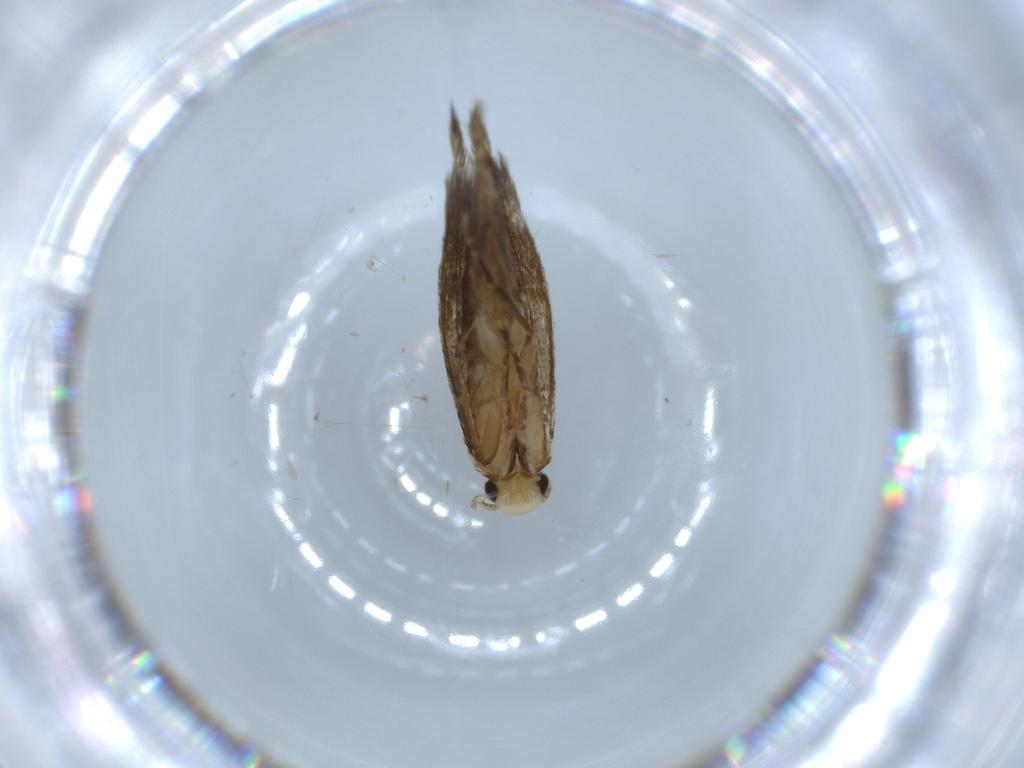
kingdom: Animalia
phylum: Arthropoda
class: Insecta
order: Lepidoptera
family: Tineidae
